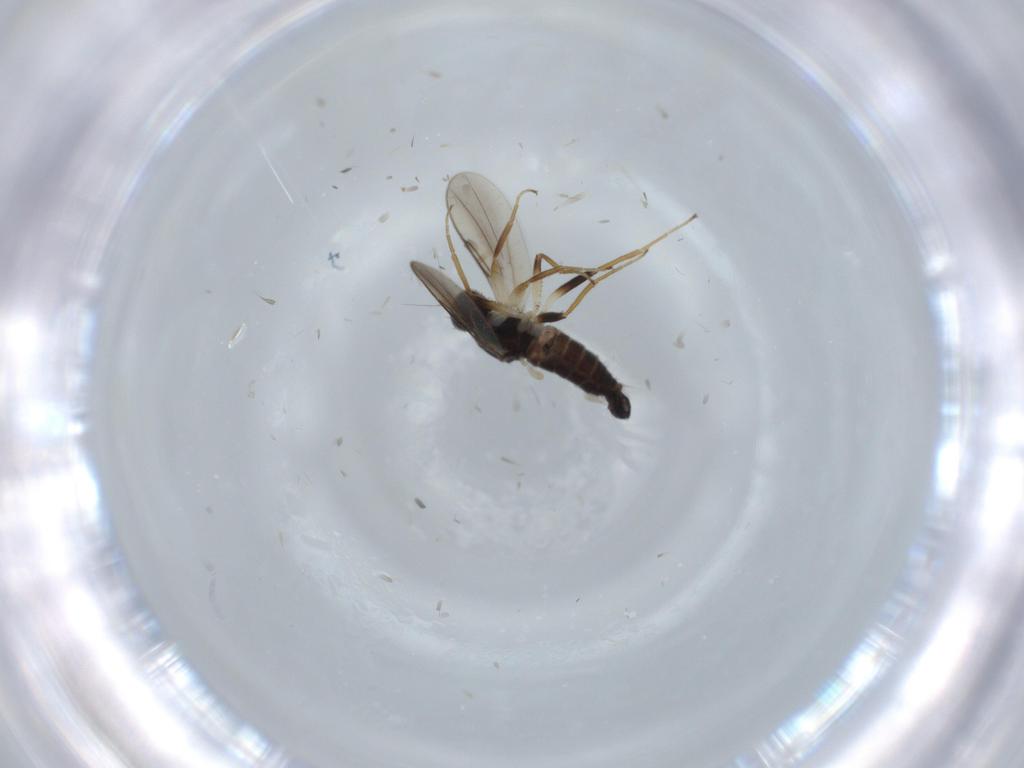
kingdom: Animalia
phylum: Arthropoda
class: Insecta
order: Diptera
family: Hybotidae
